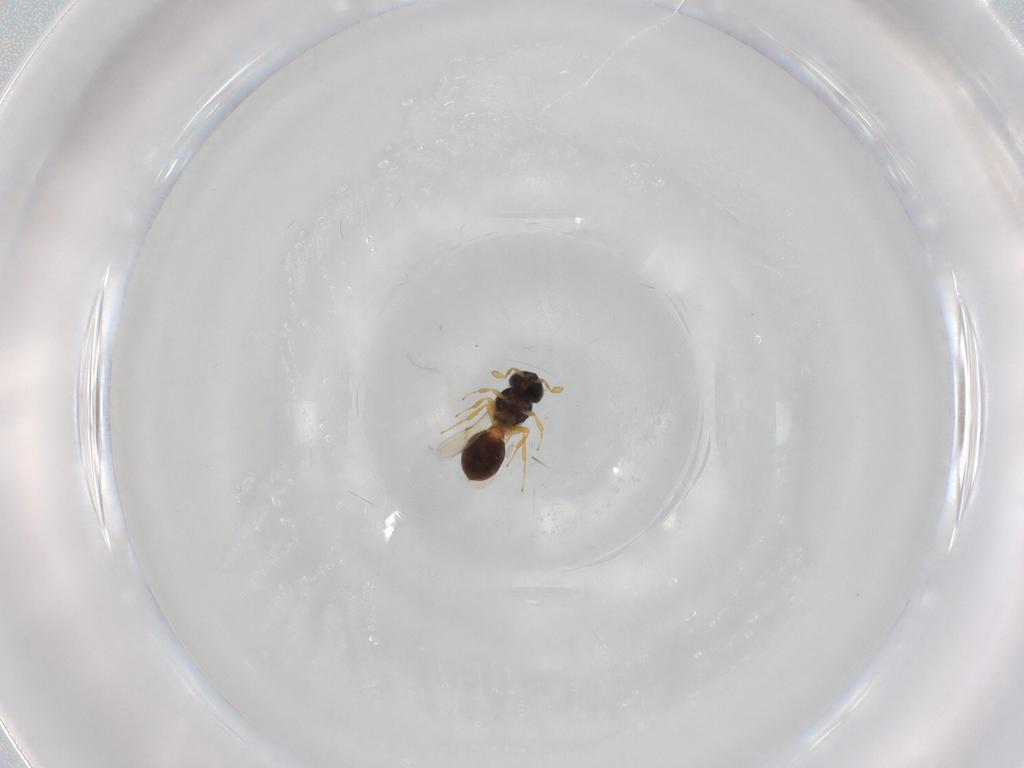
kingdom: Animalia
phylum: Arthropoda
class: Insecta
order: Hymenoptera
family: Scelionidae
